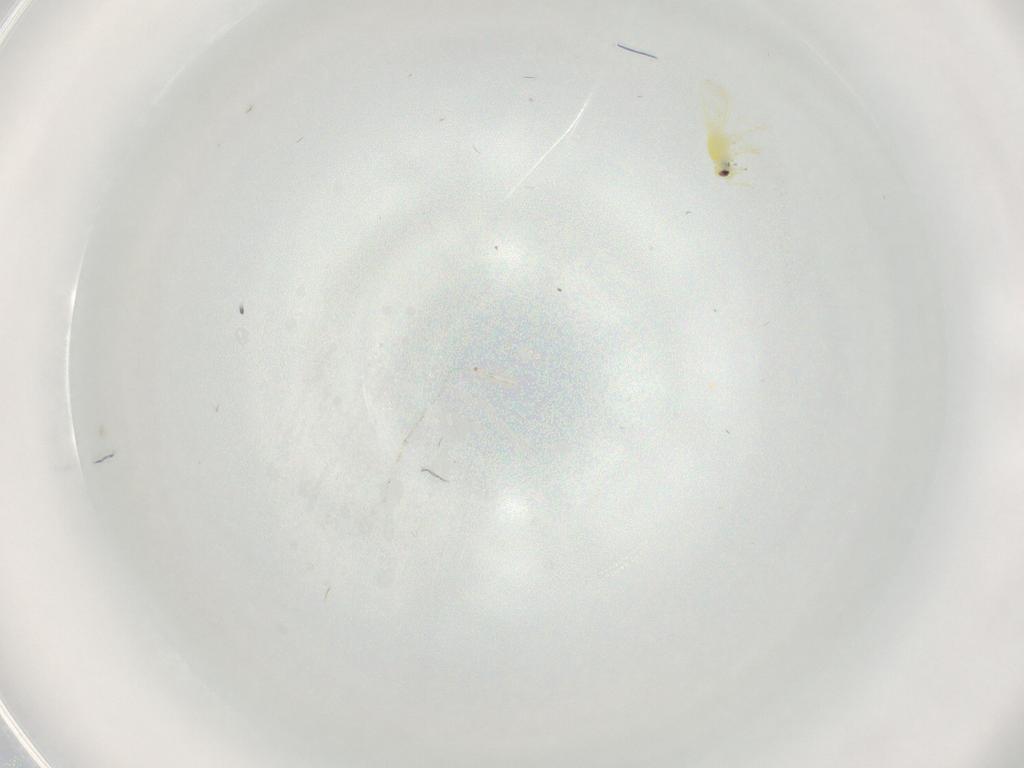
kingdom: Animalia
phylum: Arthropoda
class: Insecta
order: Hemiptera
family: Aleyrodidae
